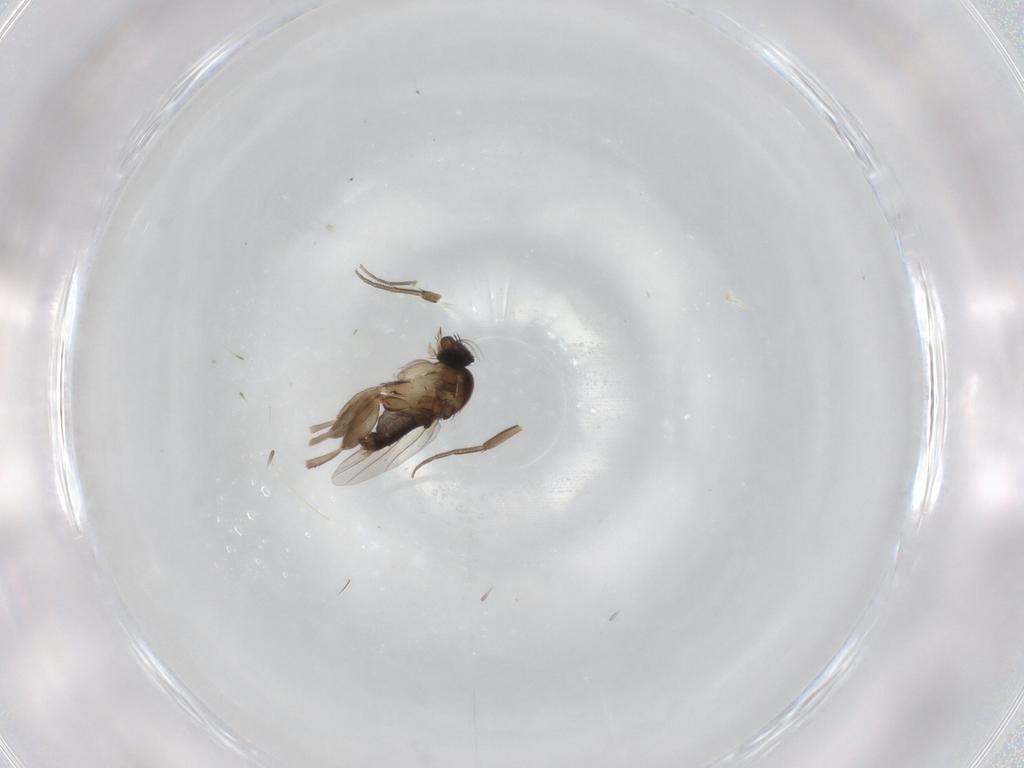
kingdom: Animalia
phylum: Arthropoda
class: Insecta
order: Diptera
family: Phoridae
